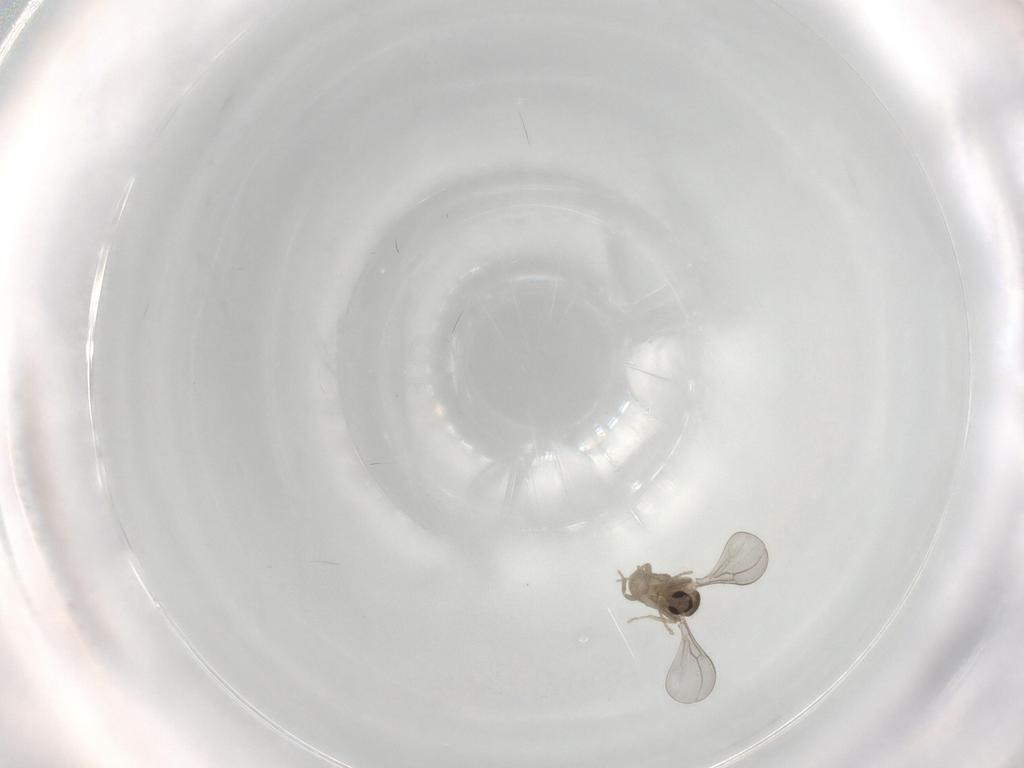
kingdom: Animalia
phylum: Arthropoda
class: Insecta
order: Diptera
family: Cecidomyiidae
